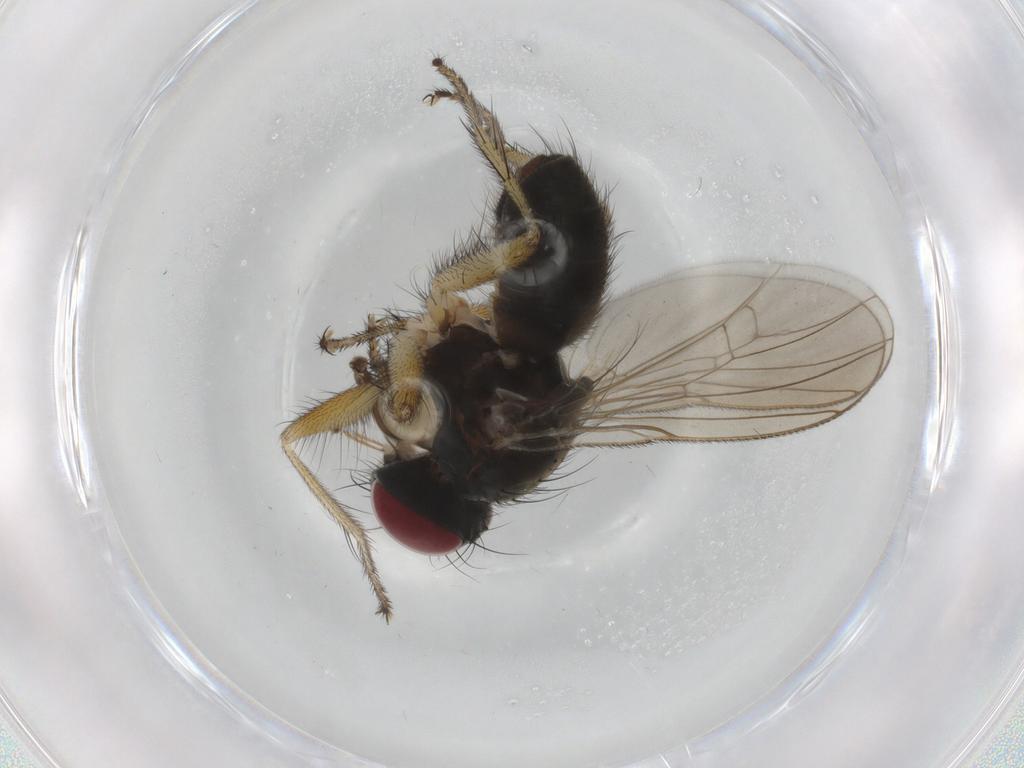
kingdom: Animalia
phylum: Arthropoda
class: Insecta
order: Diptera
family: Muscidae
